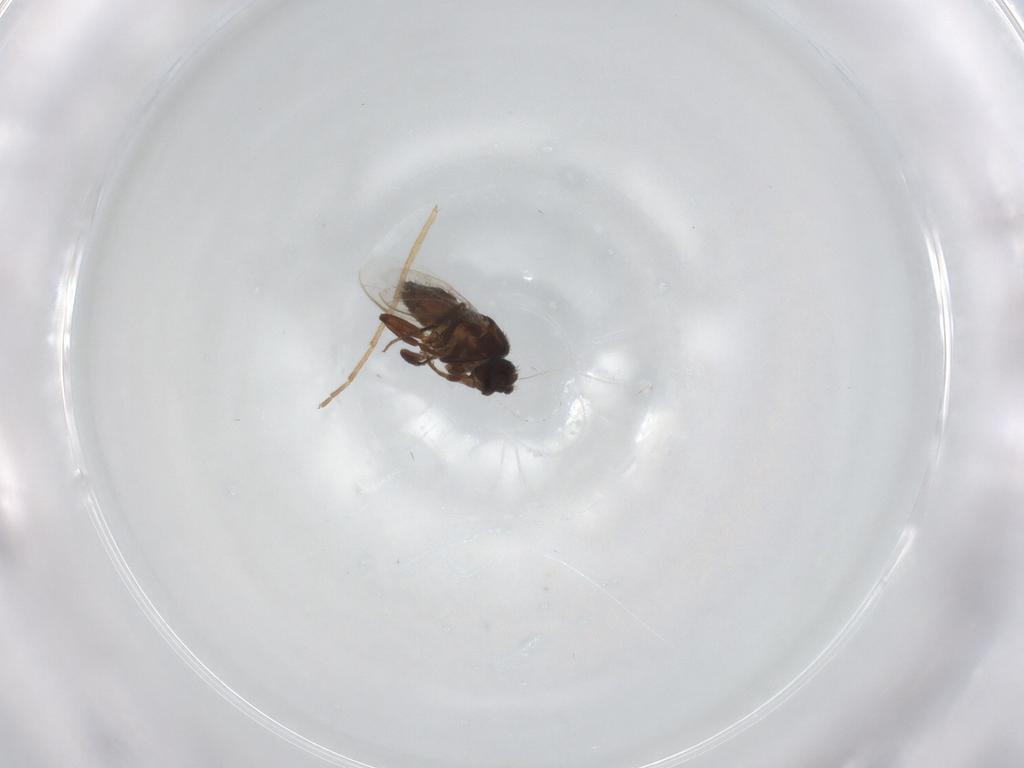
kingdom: Animalia
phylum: Arthropoda
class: Insecta
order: Diptera
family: Sphaeroceridae
